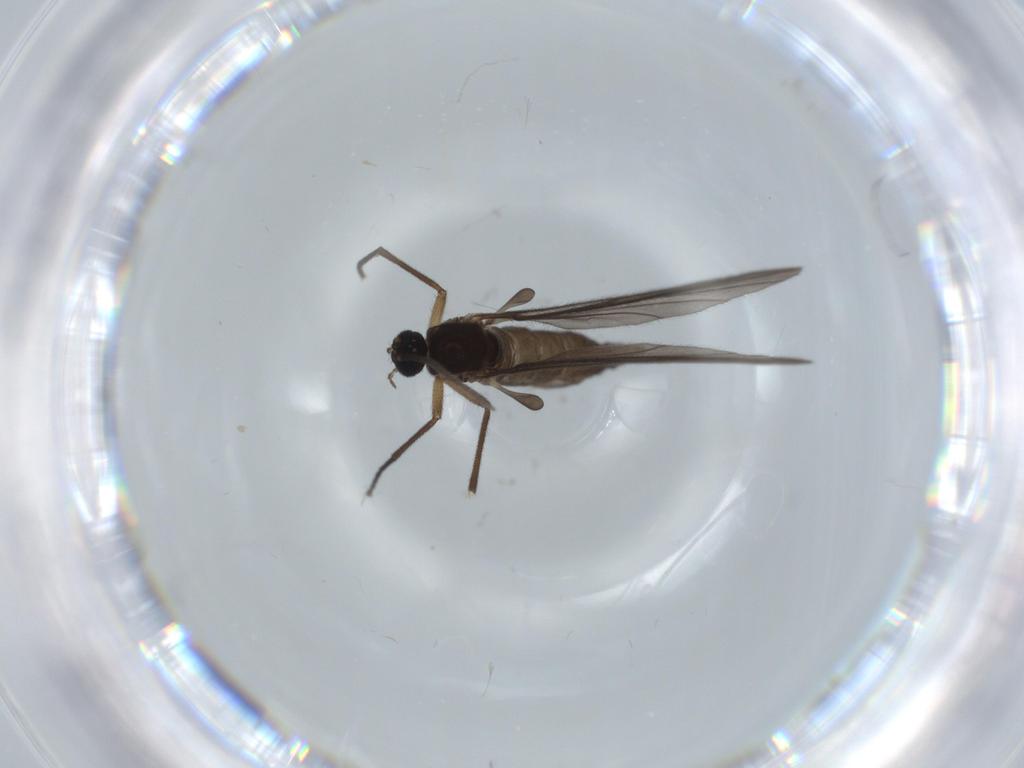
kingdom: Animalia
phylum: Arthropoda
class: Insecta
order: Diptera
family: Sciaridae
